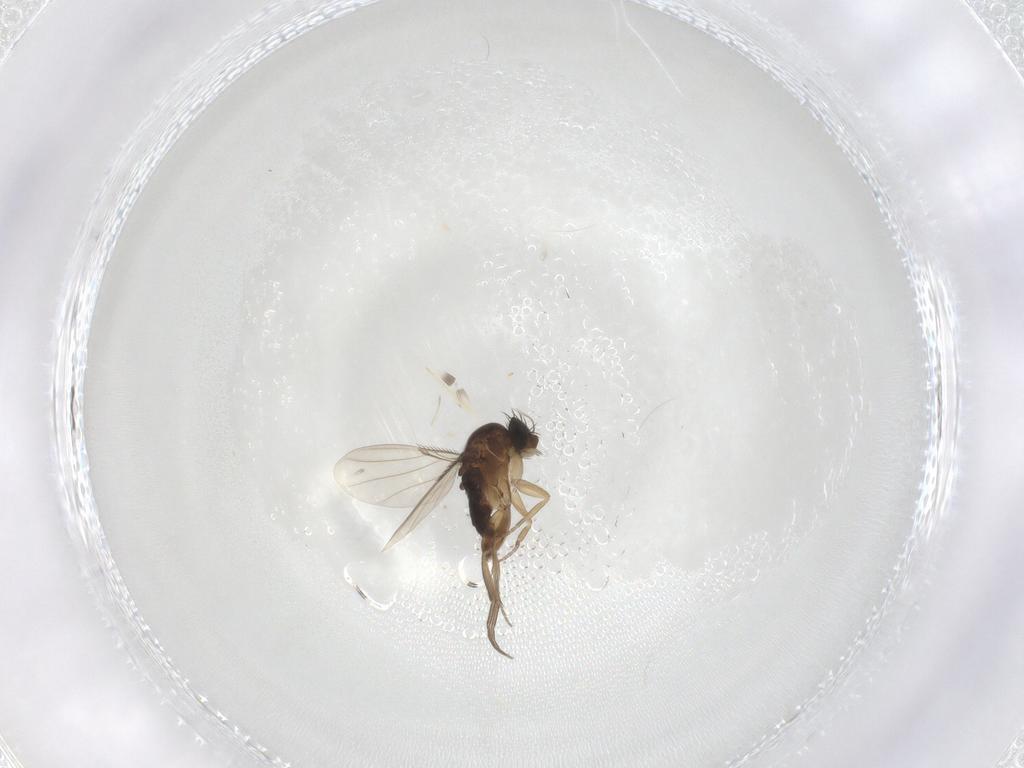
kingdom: Animalia
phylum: Arthropoda
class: Insecta
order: Diptera
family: Phoridae
